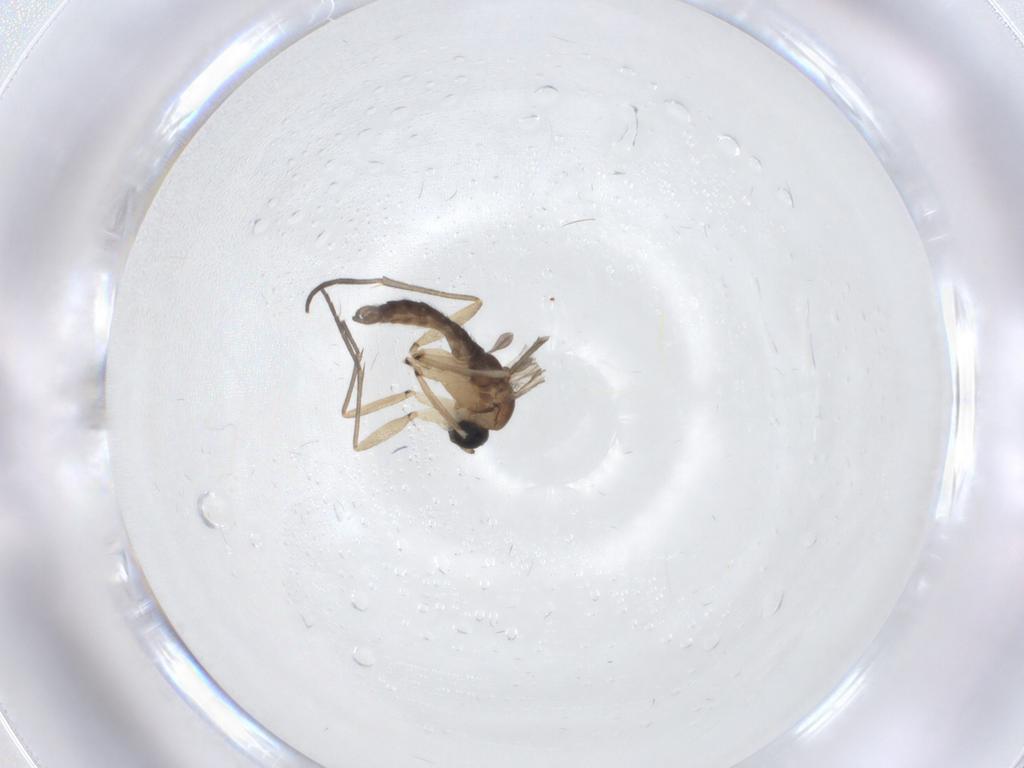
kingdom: Animalia
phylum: Arthropoda
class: Insecta
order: Diptera
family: Sciaridae
